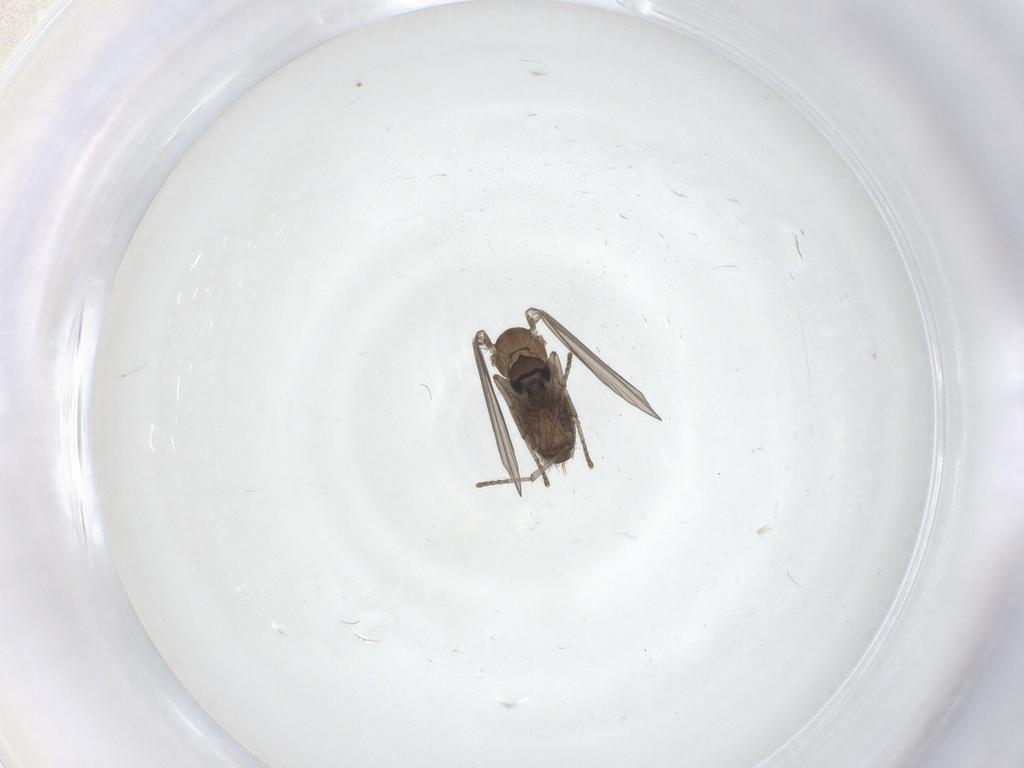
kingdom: Animalia
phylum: Arthropoda
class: Insecta
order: Diptera
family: Psychodidae
